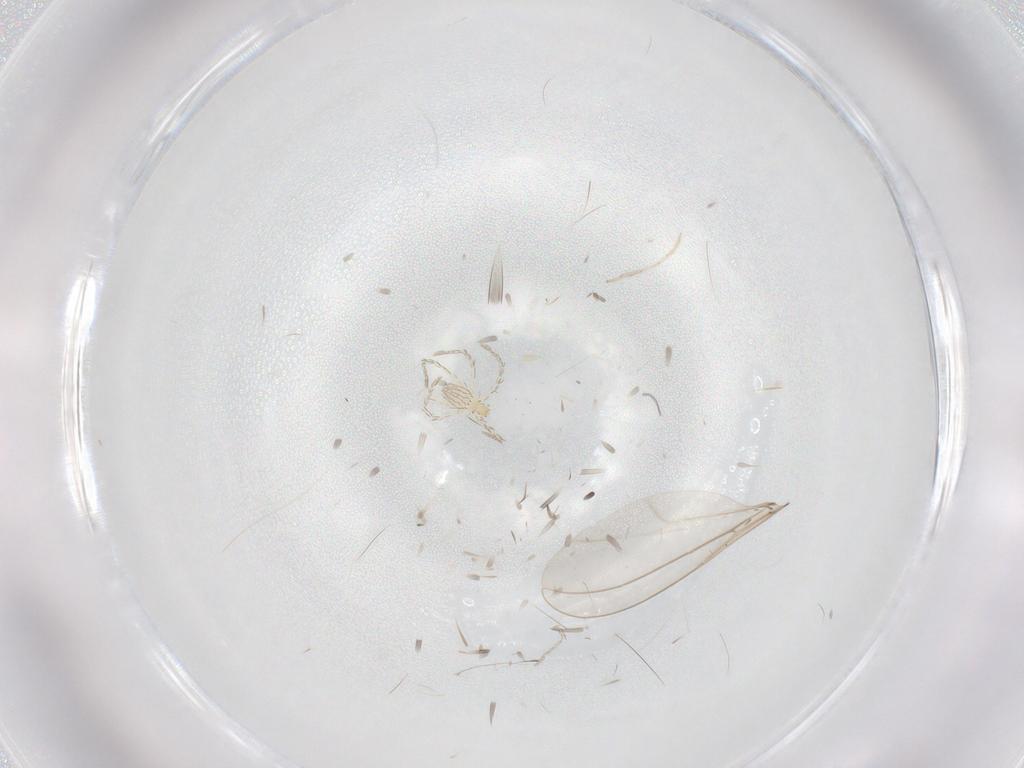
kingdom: Animalia
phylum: Arthropoda
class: Arachnida
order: Trombidiformes
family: Erythraeidae
